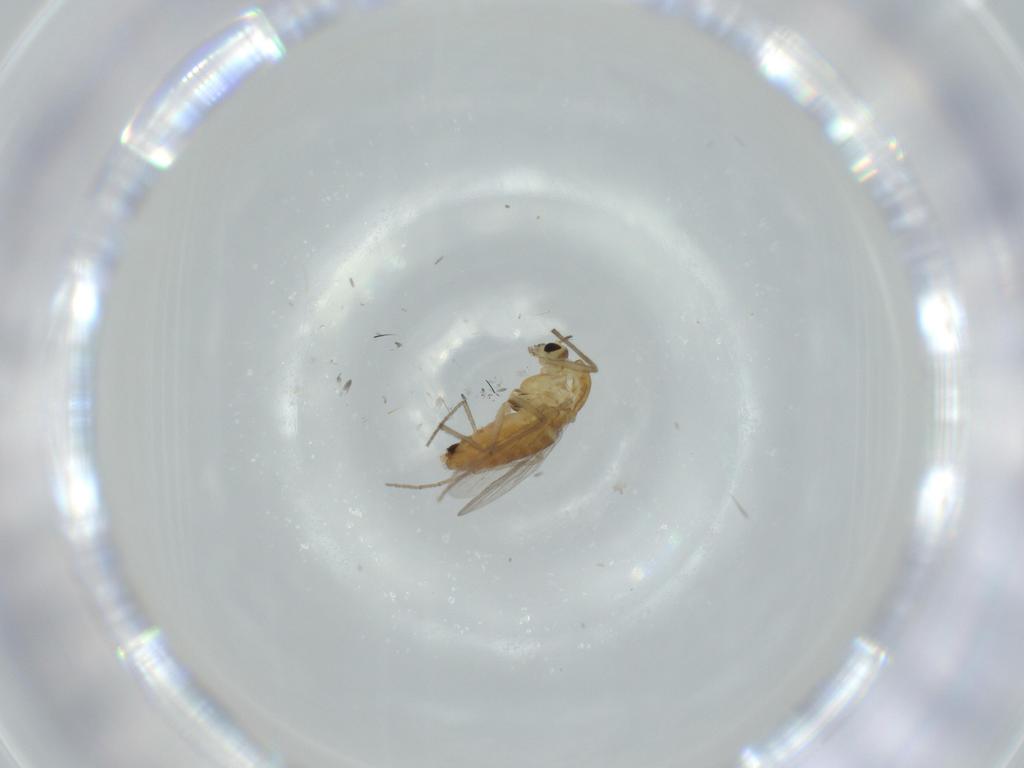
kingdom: Animalia
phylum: Arthropoda
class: Insecta
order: Diptera
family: Chironomidae
